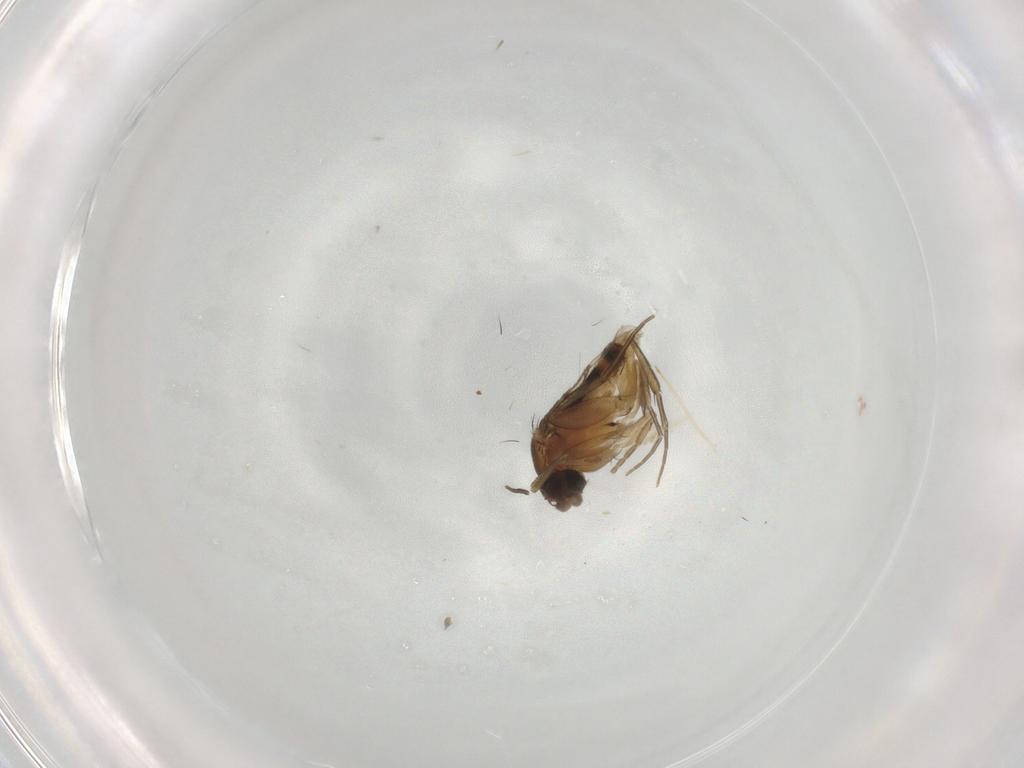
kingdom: Animalia
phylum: Arthropoda
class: Insecta
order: Diptera
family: Phoridae
